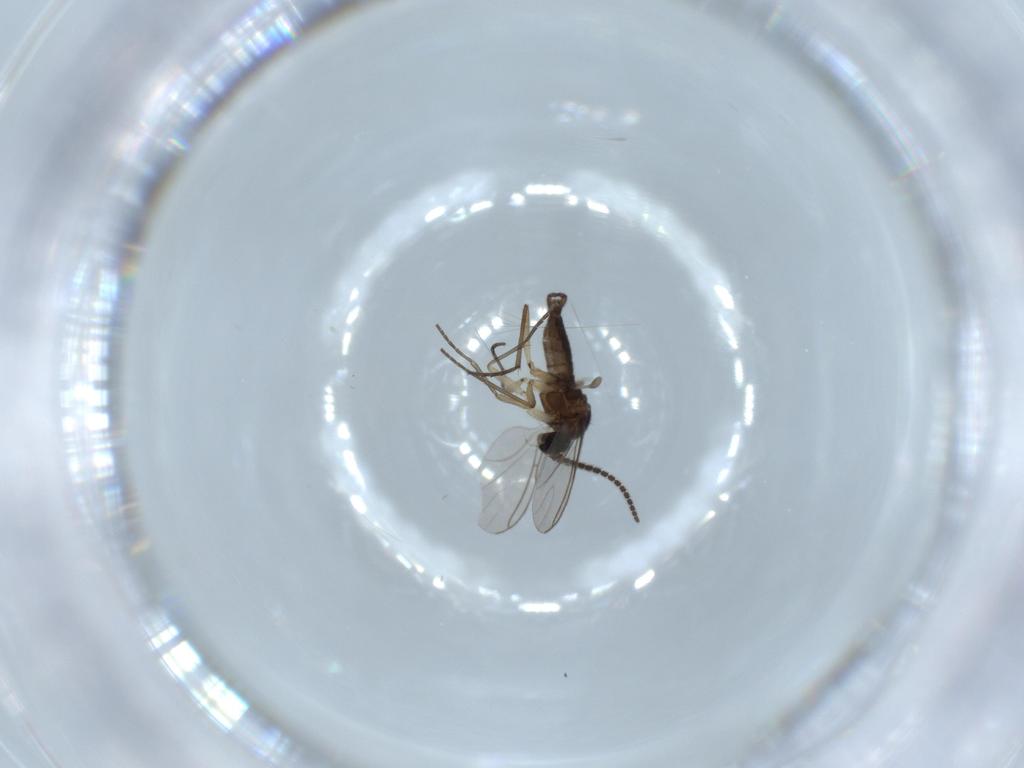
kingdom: Animalia
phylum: Arthropoda
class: Insecta
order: Diptera
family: Sciaridae
